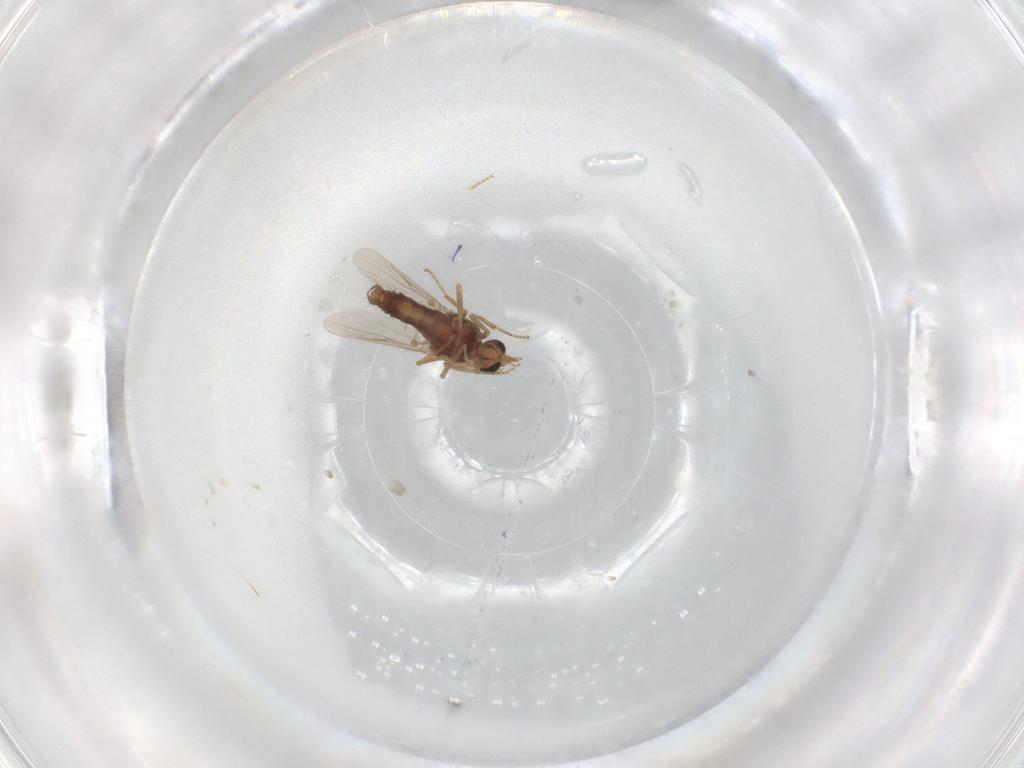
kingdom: Animalia
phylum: Arthropoda
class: Insecta
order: Diptera
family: Ceratopogonidae
